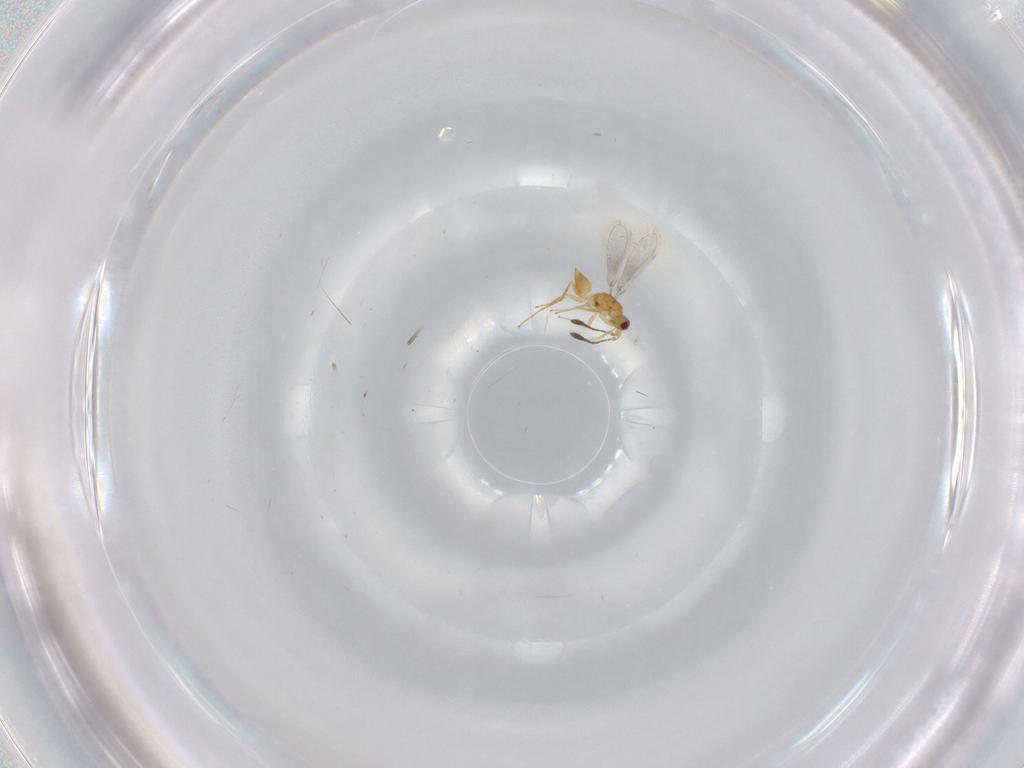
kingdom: Animalia
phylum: Arthropoda
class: Insecta
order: Hymenoptera
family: Mymaridae
